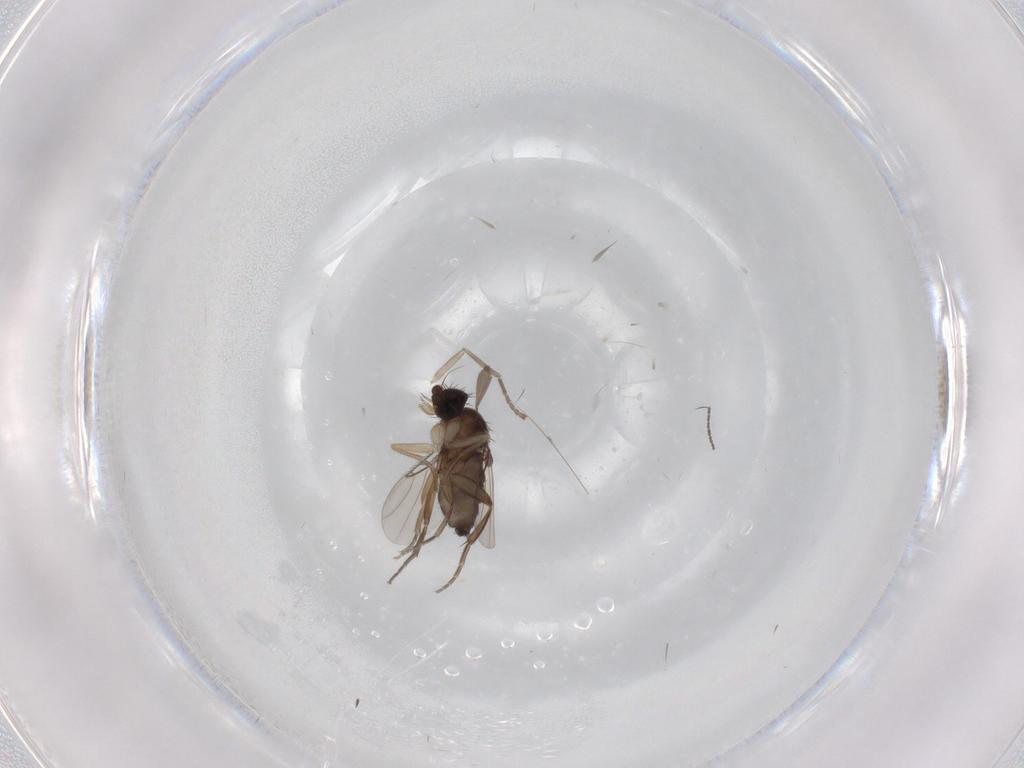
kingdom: Animalia
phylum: Arthropoda
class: Insecta
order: Diptera
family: Phoridae
